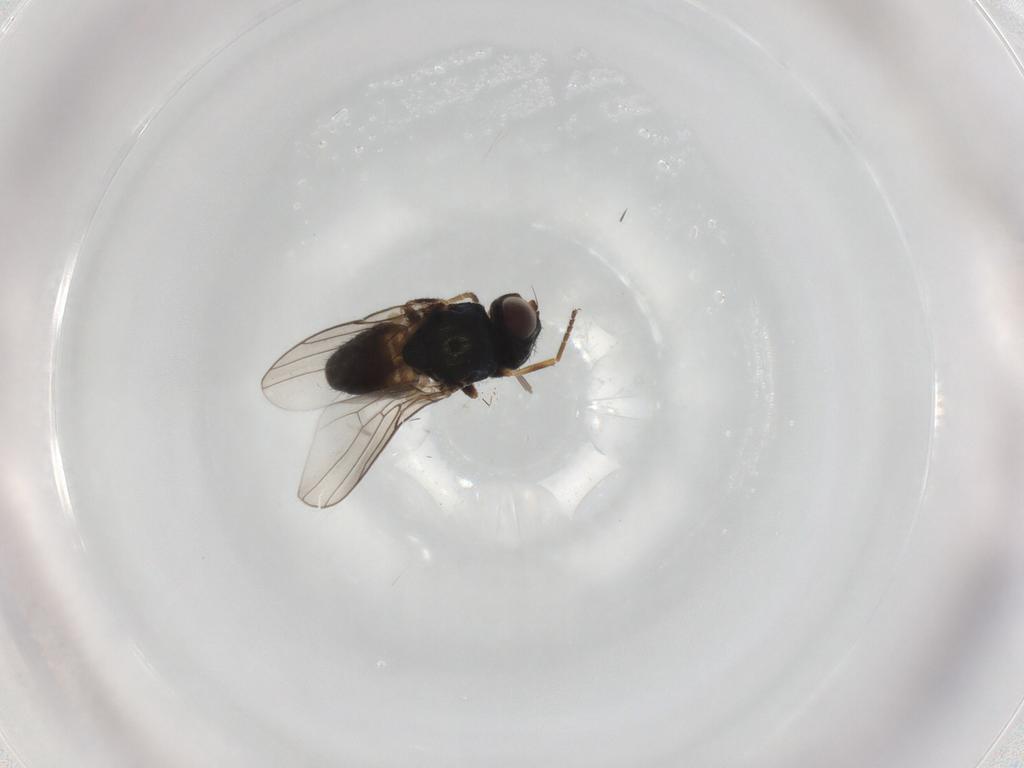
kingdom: Animalia
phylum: Arthropoda
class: Insecta
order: Diptera
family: Chloropidae
